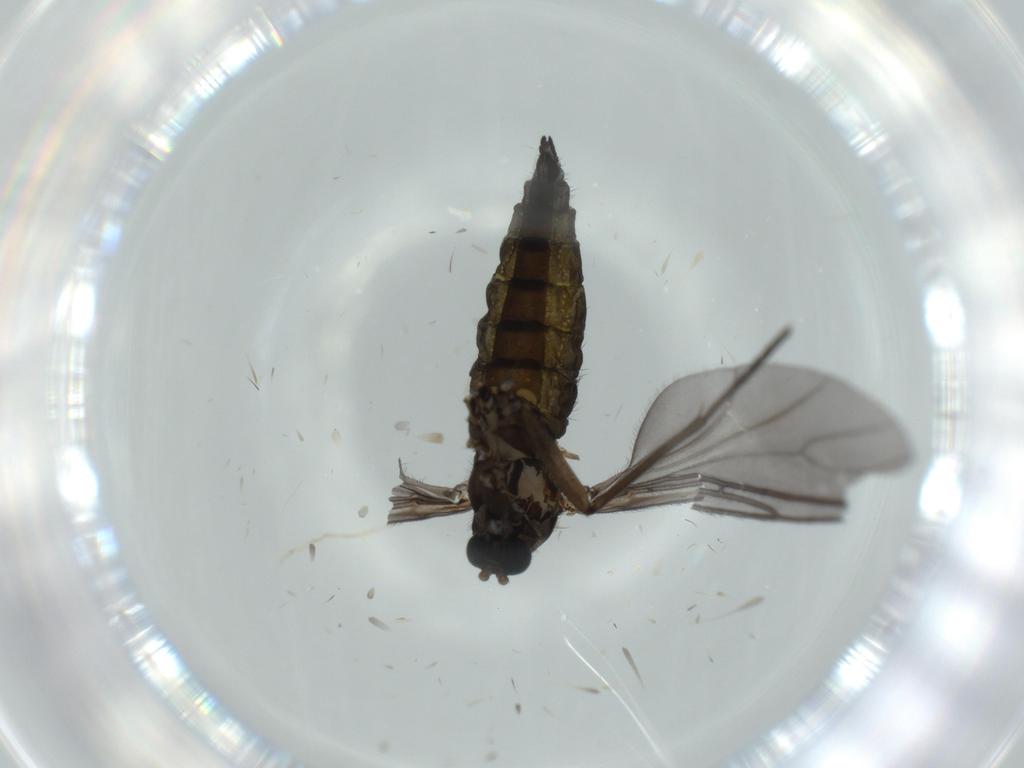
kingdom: Animalia
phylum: Arthropoda
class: Insecta
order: Diptera
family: Sciaridae
